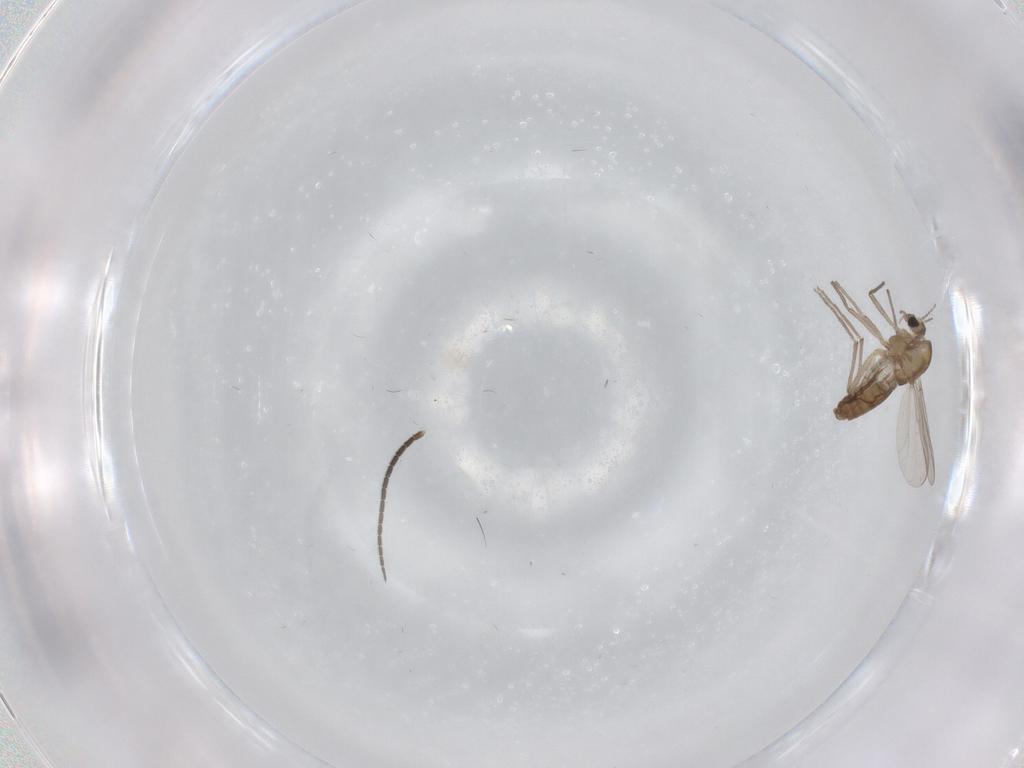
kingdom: Animalia
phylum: Arthropoda
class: Insecta
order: Diptera
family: Chironomidae
